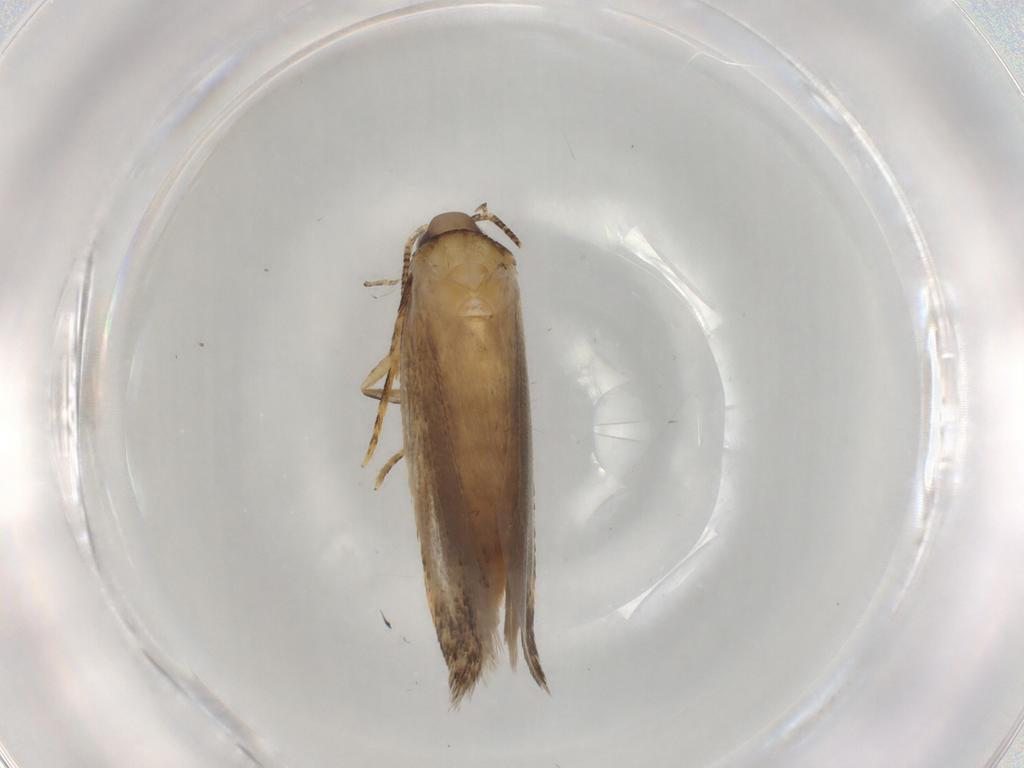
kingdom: Animalia
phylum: Arthropoda
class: Insecta
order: Lepidoptera
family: Autostichidae
